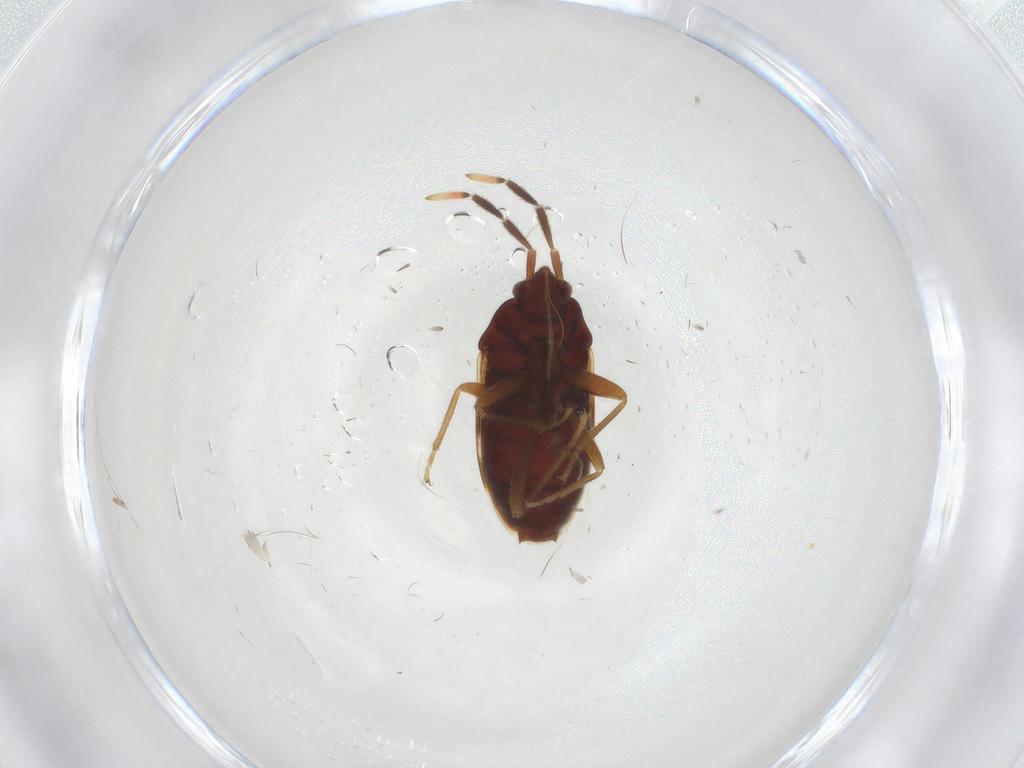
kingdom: Animalia
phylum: Arthropoda
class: Insecta
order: Hemiptera
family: Rhyparochromidae
